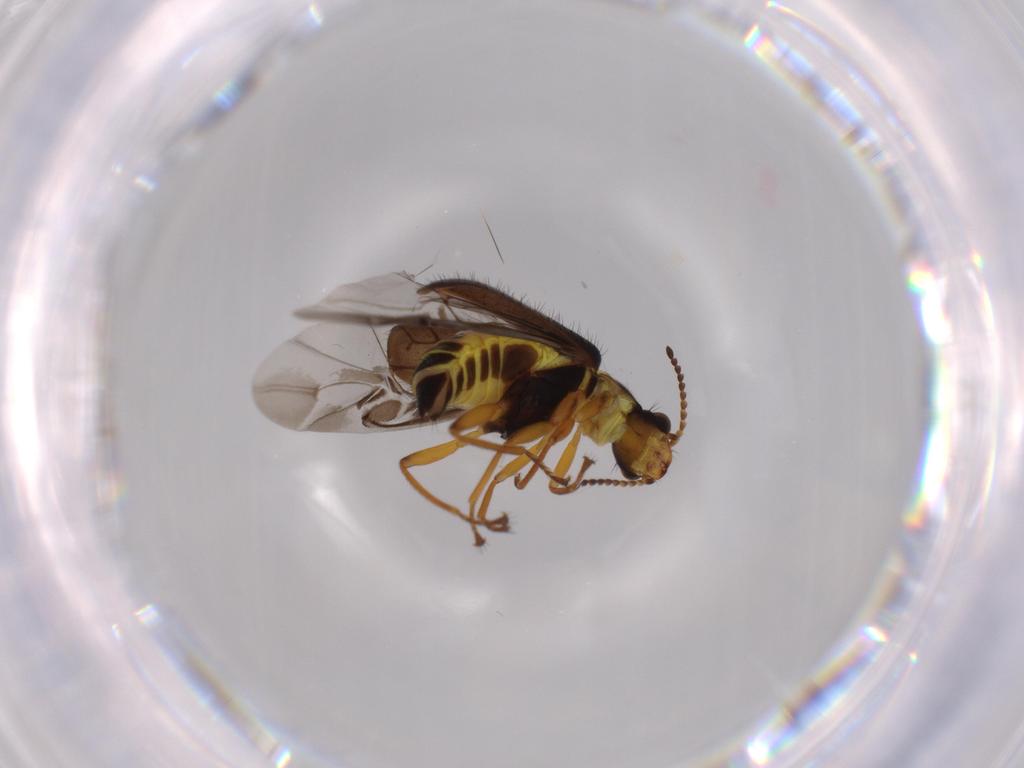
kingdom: Animalia
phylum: Arthropoda
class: Insecta
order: Coleoptera
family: Melyridae
